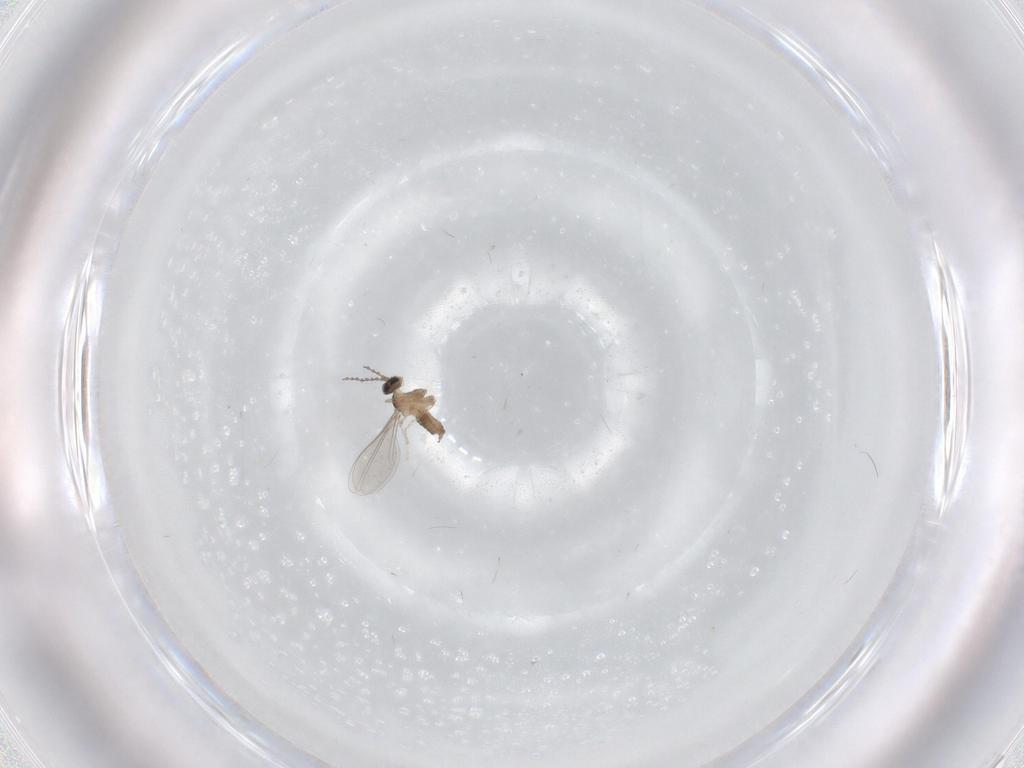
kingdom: Animalia
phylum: Arthropoda
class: Insecta
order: Diptera
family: Cecidomyiidae
